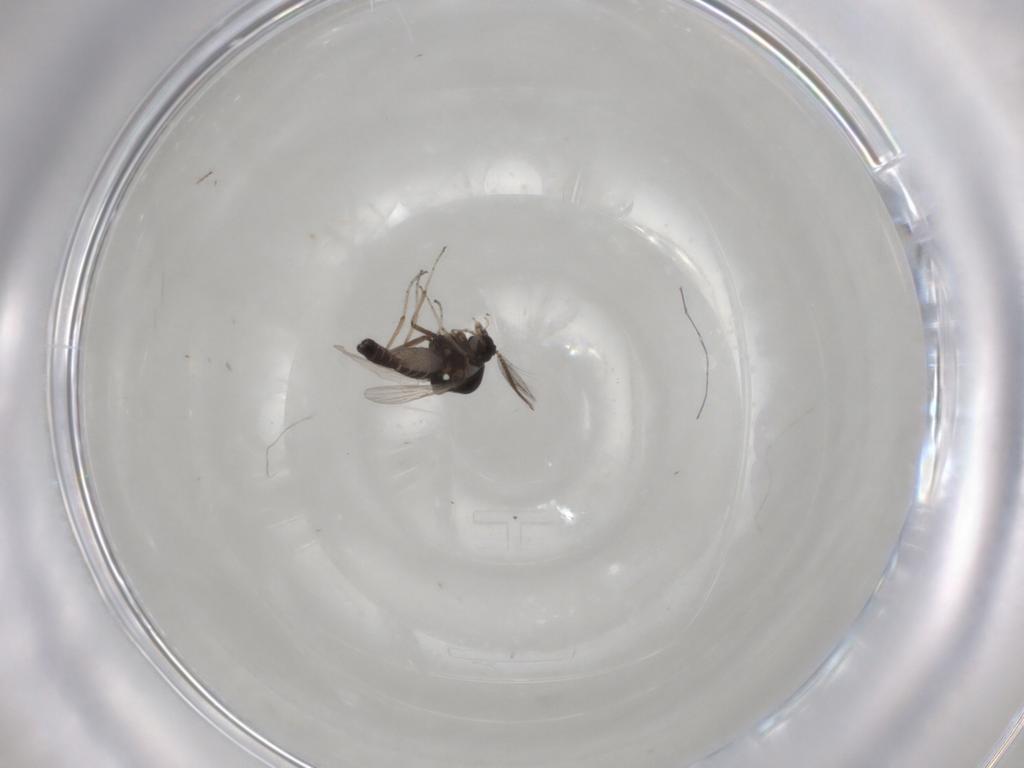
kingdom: Animalia
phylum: Arthropoda
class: Insecta
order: Diptera
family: Ceratopogonidae
